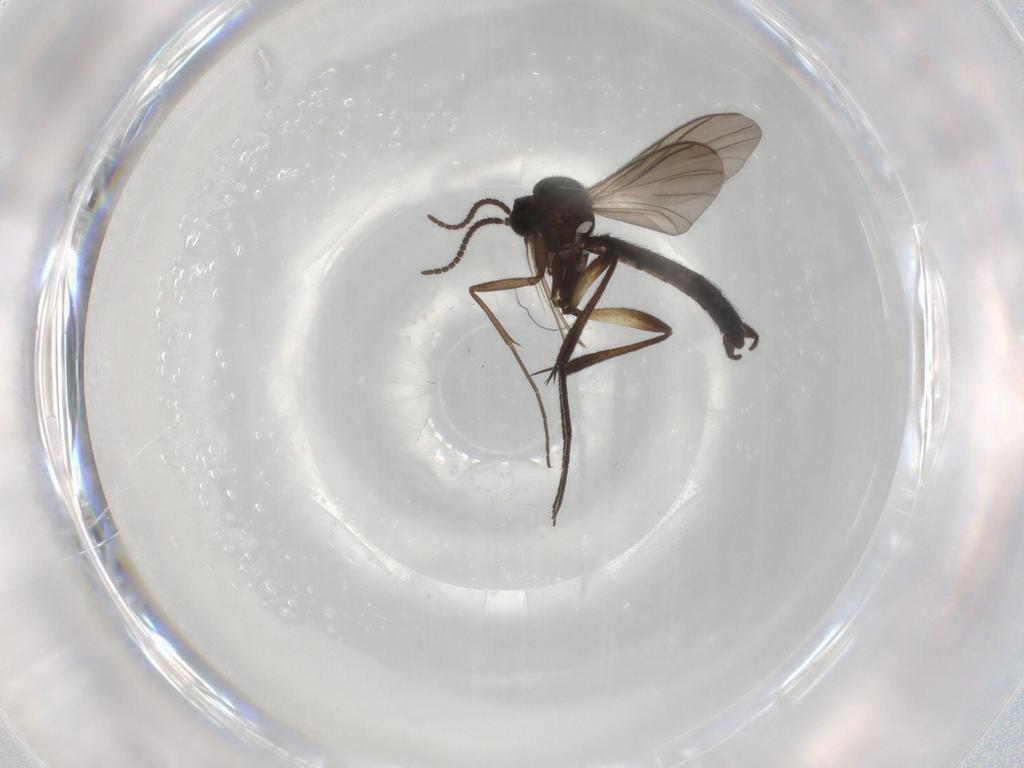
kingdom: Animalia
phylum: Arthropoda
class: Insecta
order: Diptera
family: Keroplatidae
